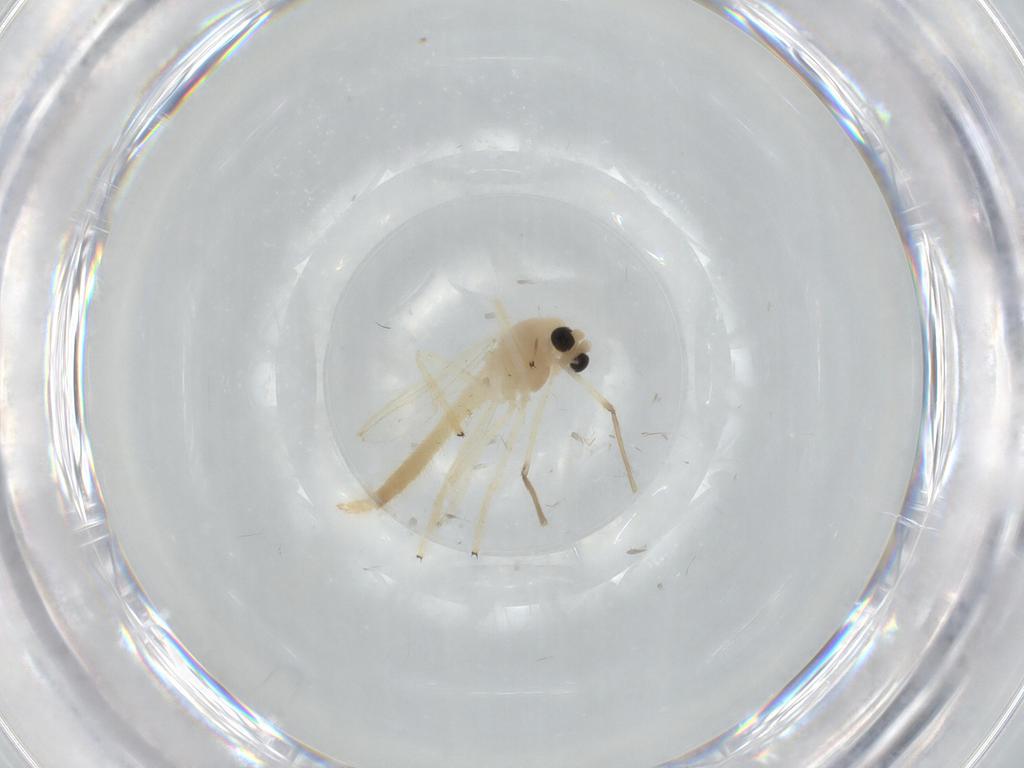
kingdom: Animalia
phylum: Arthropoda
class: Insecta
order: Diptera
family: Chironomidae
